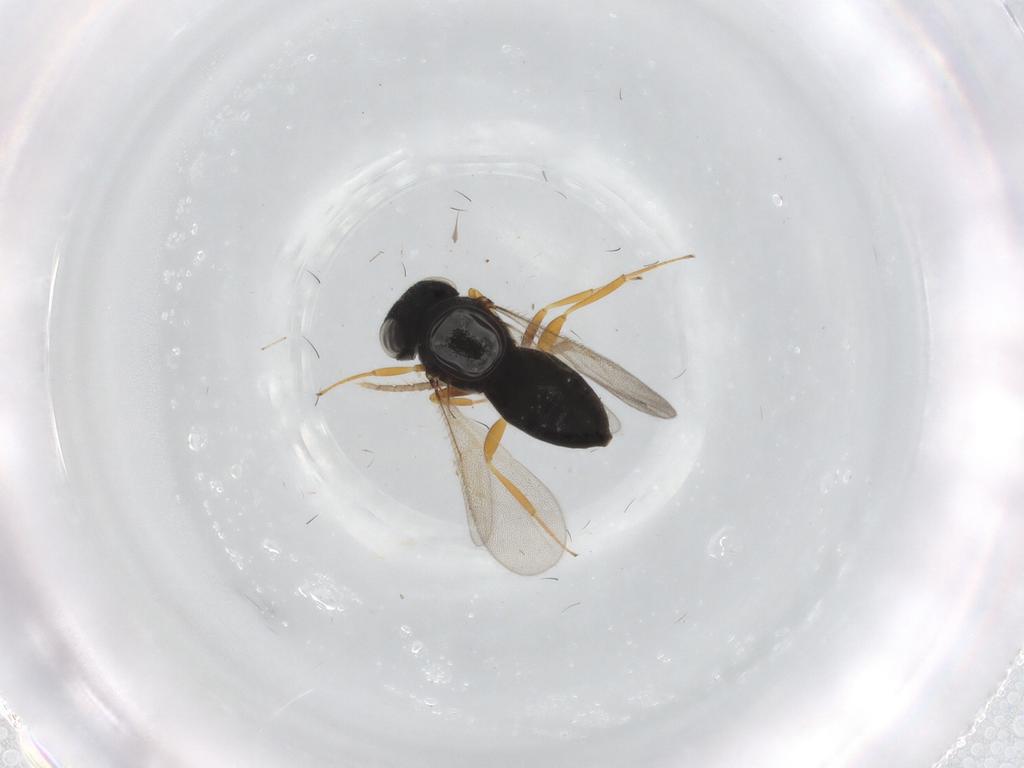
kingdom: Animalia
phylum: Arthropoda
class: Insecta
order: Hymenoptera
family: Scelionidae
